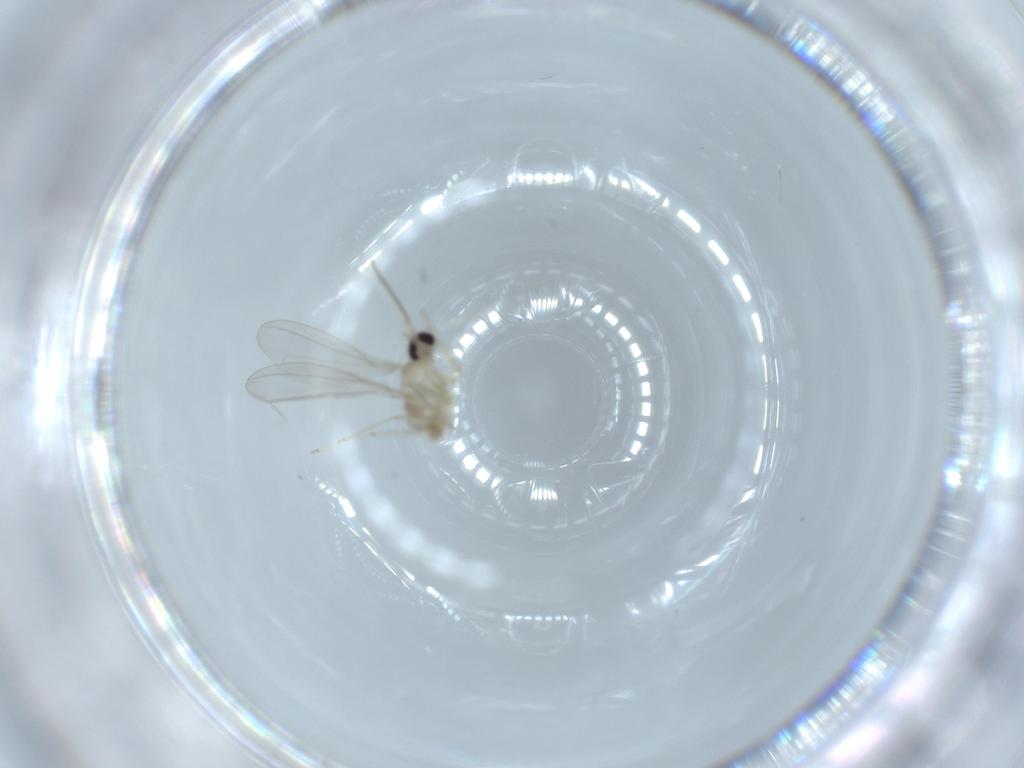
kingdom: Animalia
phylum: Arthropoda
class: Insecta
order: Diptera
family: Cecidomyiidae
